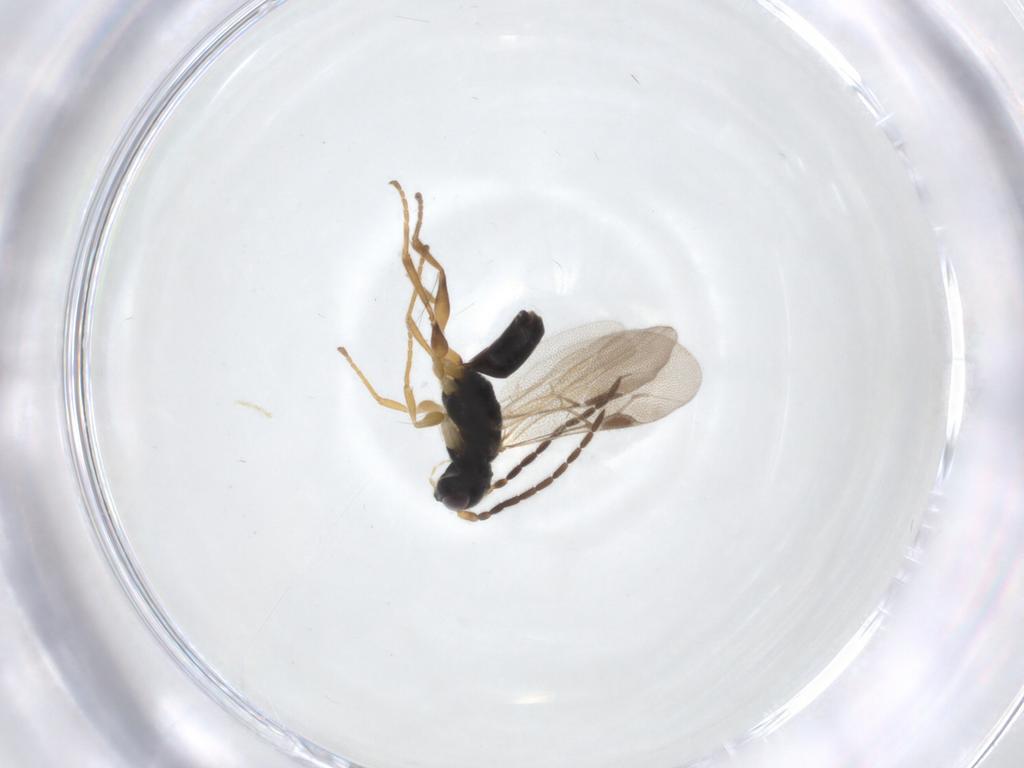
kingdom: Animalia
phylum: Arthropoda
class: Insecta
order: Hymenoptera
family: Dryinidae
